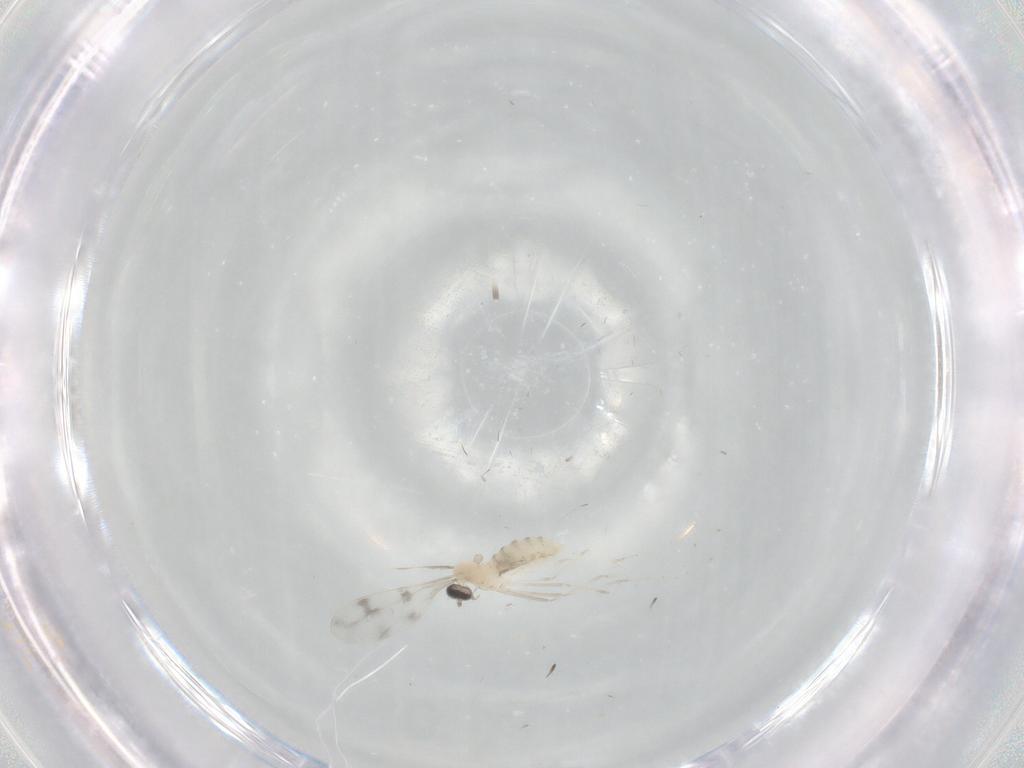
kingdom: Animalia
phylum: Arthropoda
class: Insecta
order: Diptera
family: Cecidomyiidae
